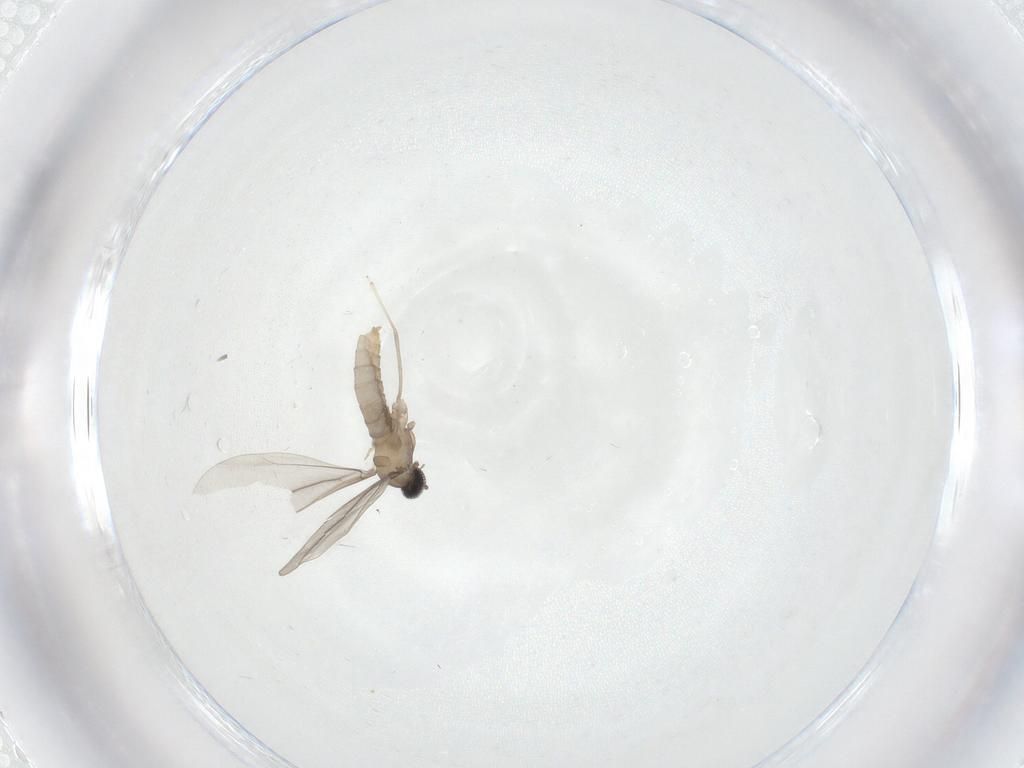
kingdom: Animalia
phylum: Arthropoda
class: Insecta
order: Diptera
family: Cecidomyiidae
